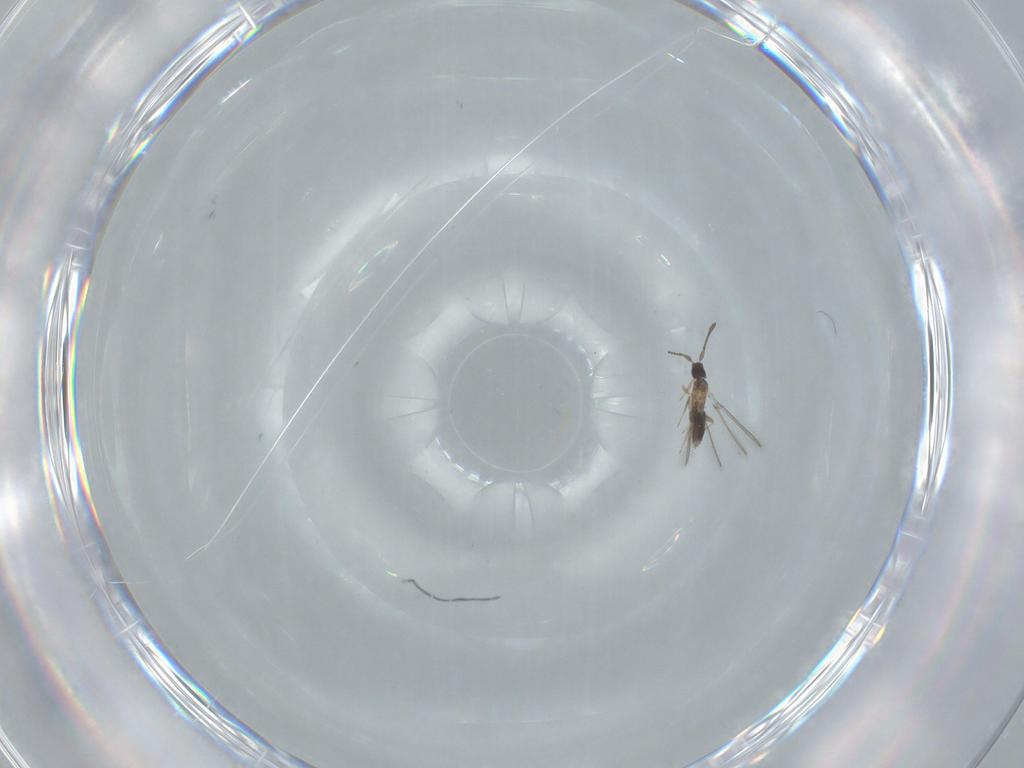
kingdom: Animalia
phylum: Arthropoda
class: Insecta
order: Hymenoptera
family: Mymaridae
